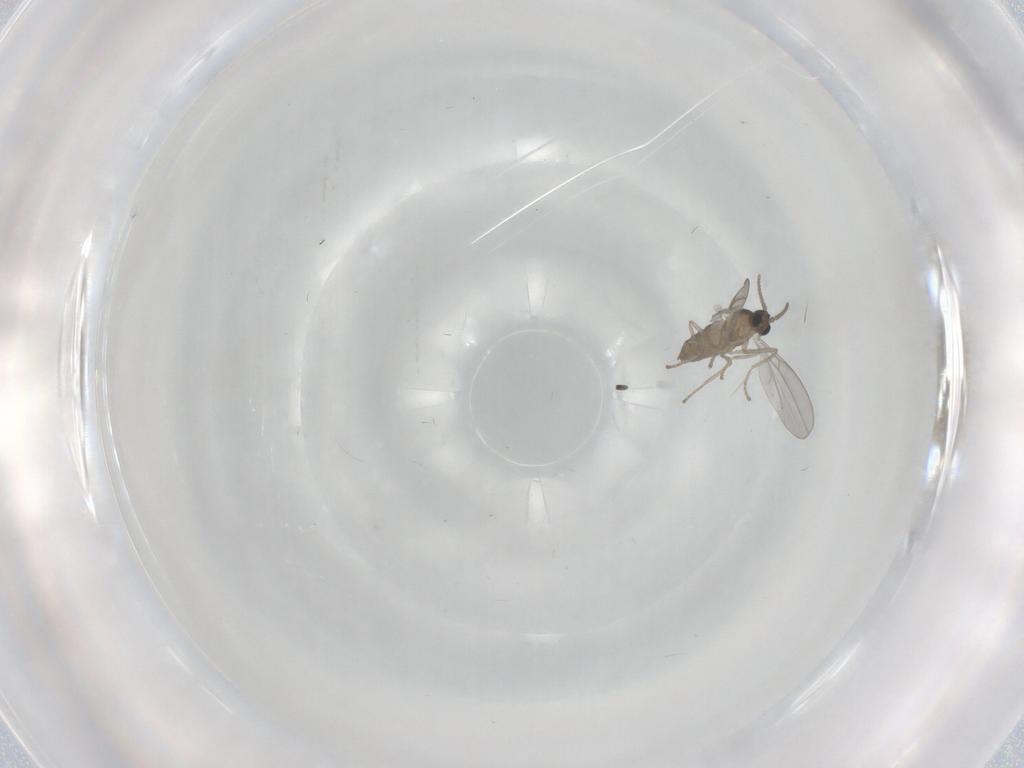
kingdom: Animalia
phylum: Arthropoda
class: Insecta
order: Diptera
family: Cecidomyiidae
